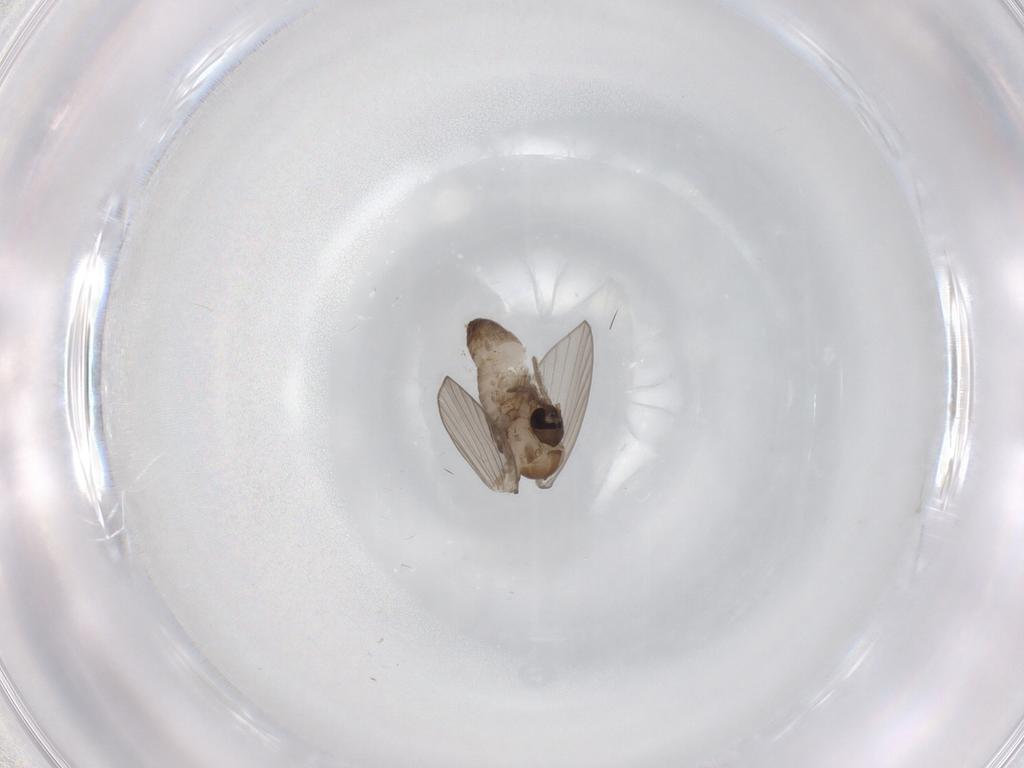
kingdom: Animalia
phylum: Arthropoda
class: Insecta
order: Diptera
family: Psychodidae
